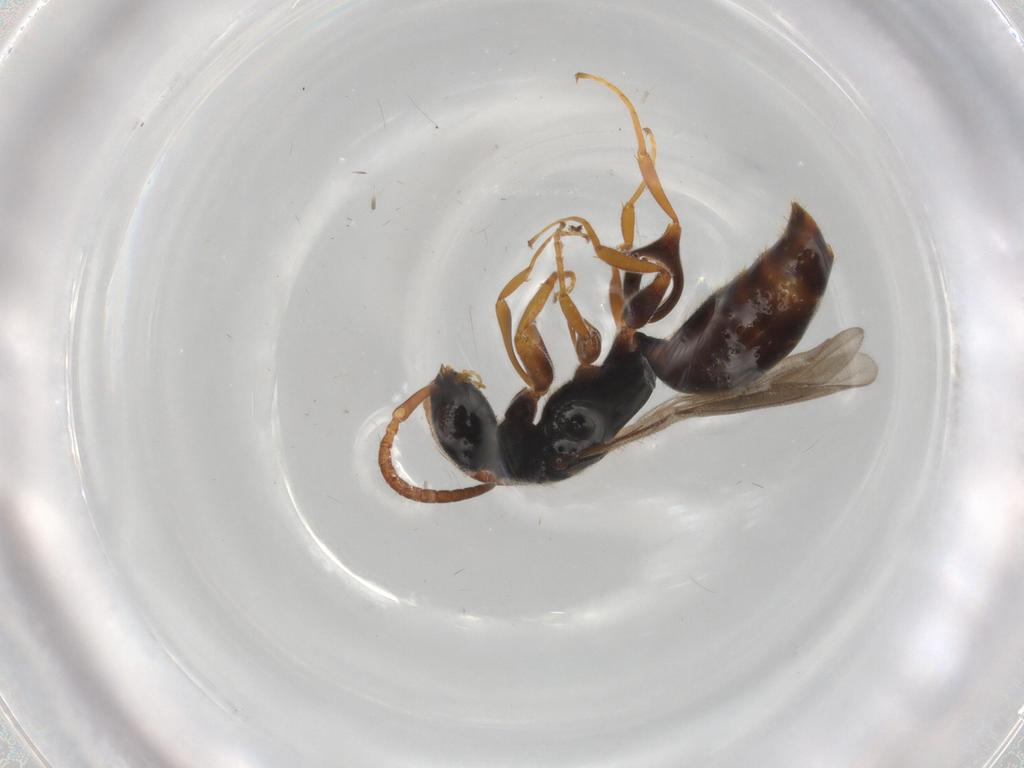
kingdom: Animalia
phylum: Arthropoda
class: Insecta
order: Hymenoptera
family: Bethylidae
